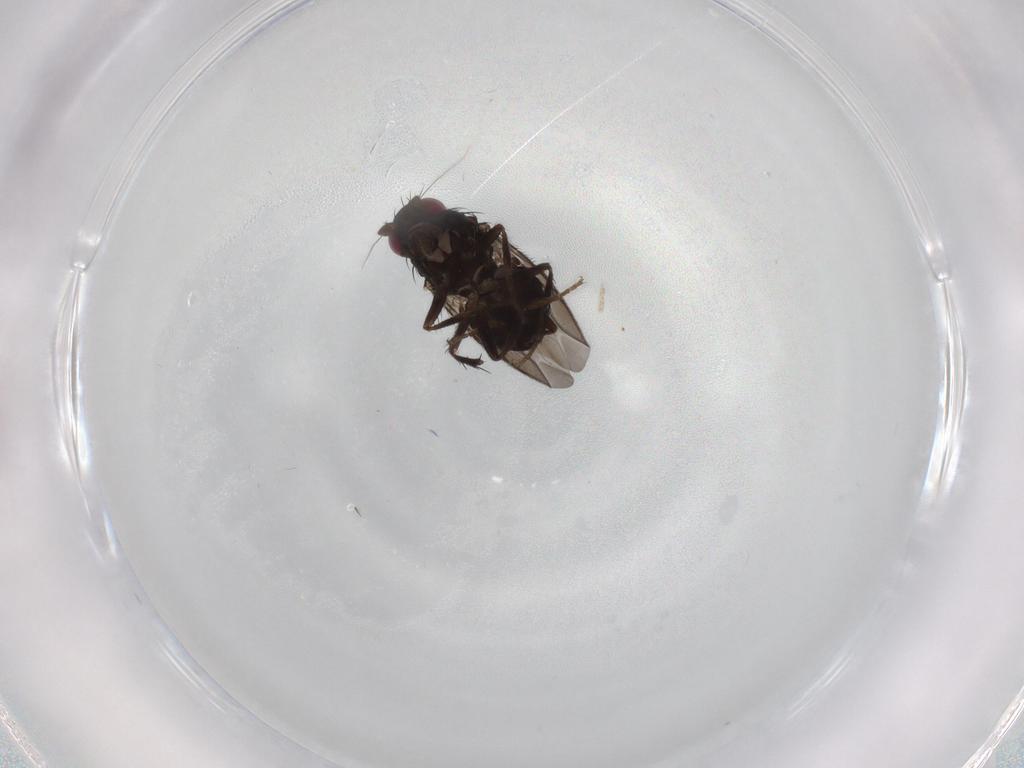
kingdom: Animalia
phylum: Arthropoda
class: Insecta
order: Diptera
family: Sphaeroceridae
